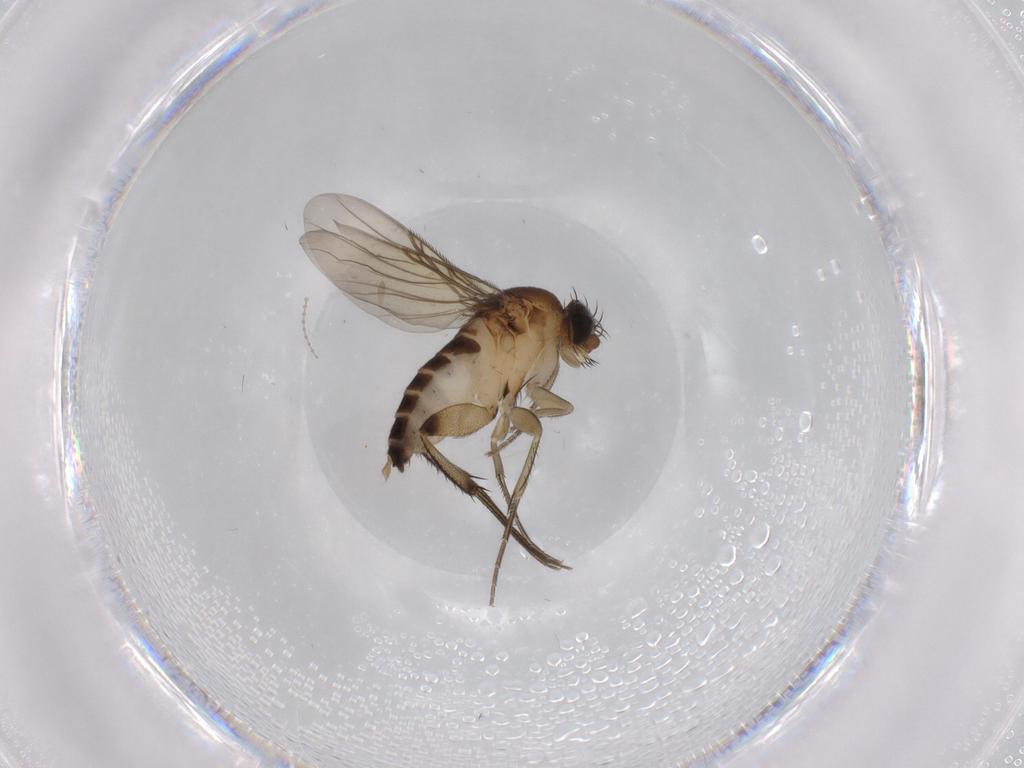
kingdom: Animalia
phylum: Arthropoda
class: Insecta
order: Diptera
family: Cecidomyiidae
